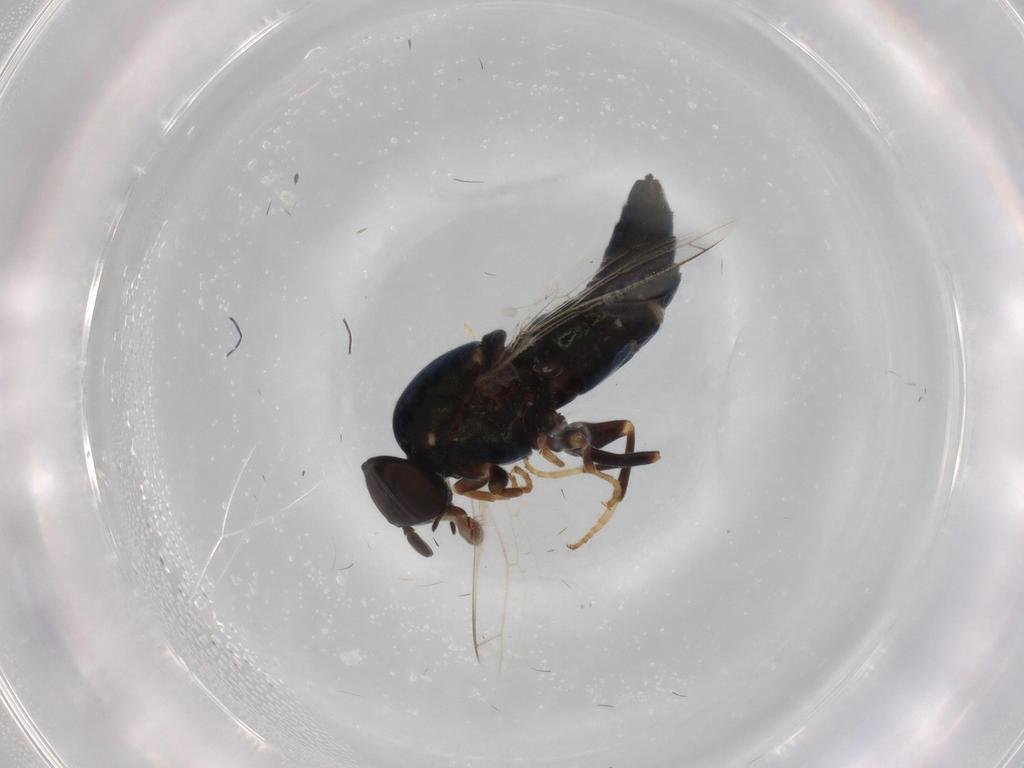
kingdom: Animalia
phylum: Arthropoda
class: Insecta
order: Diptera
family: Scenopinidae
